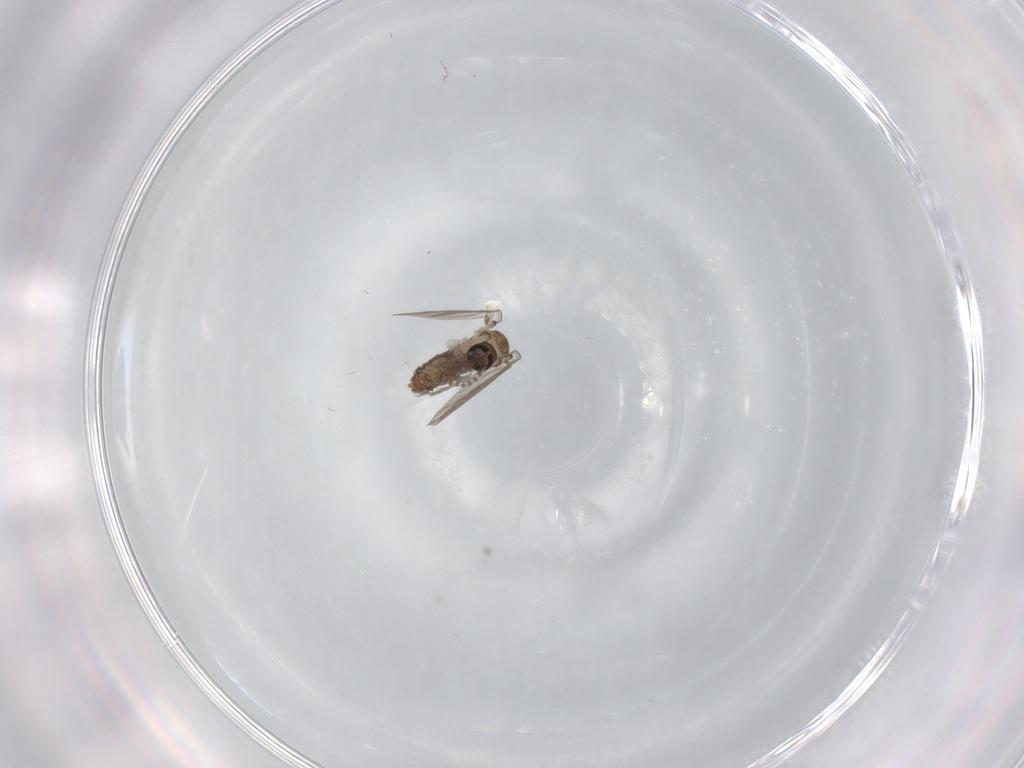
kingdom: Animalia
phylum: Arthropoda
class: Insecta
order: Diptera
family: Psychodidae
